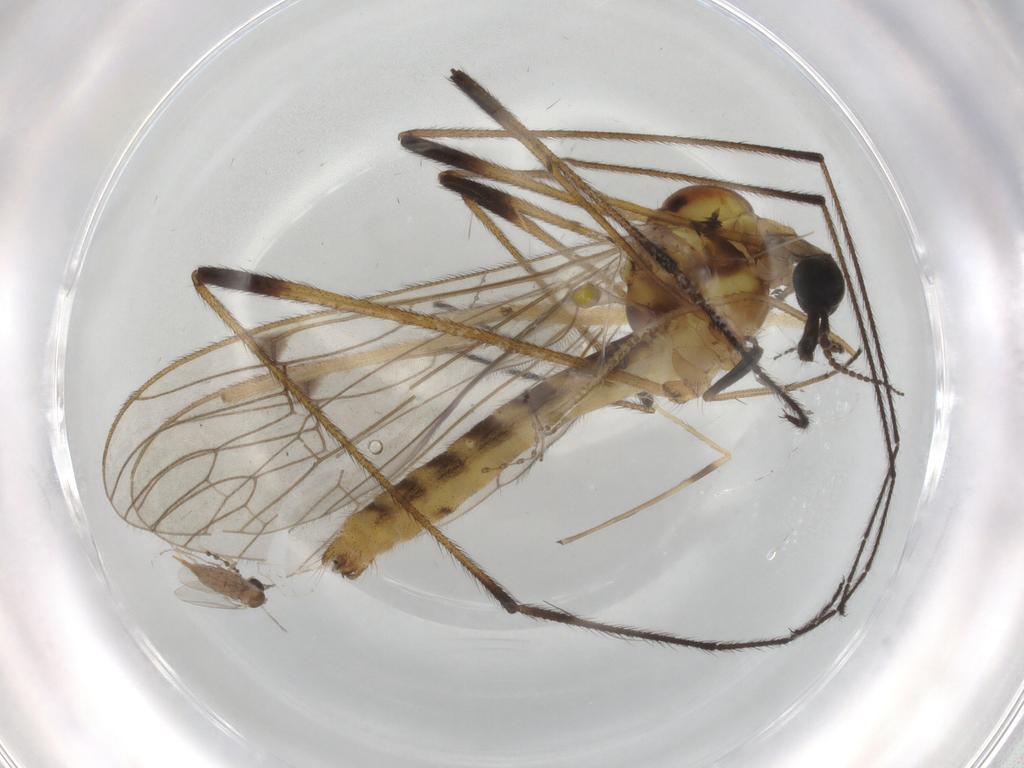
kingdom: Animalia
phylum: Arthropoda
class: Insecta
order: Diptera
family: Limoniidae
